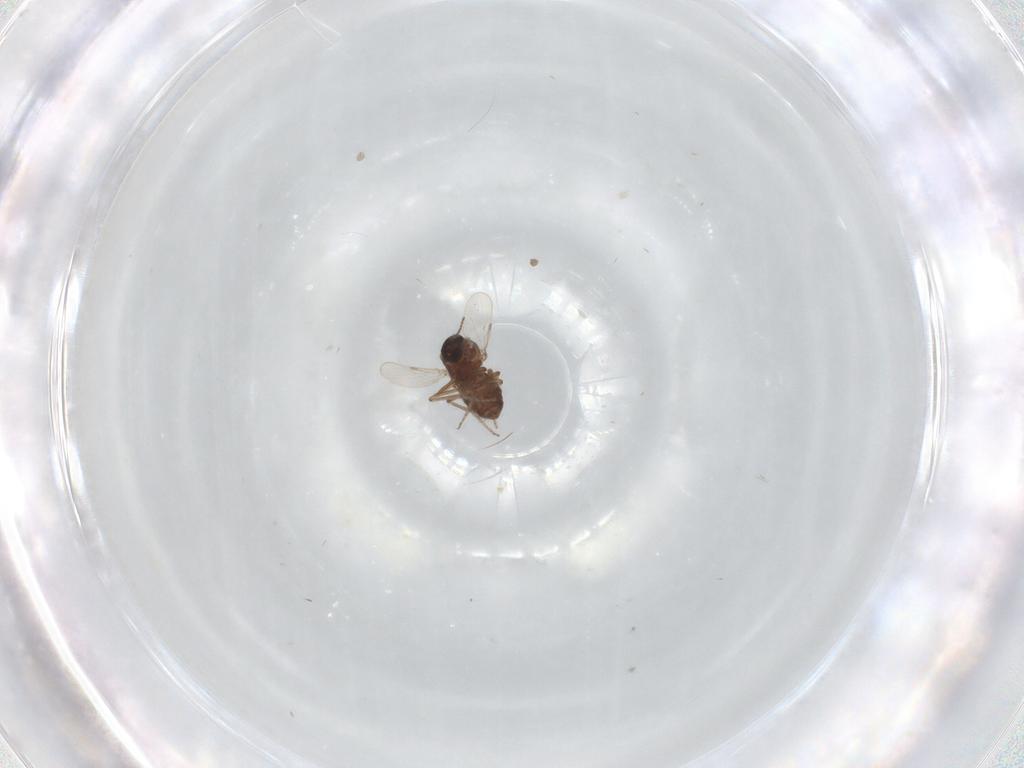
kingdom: Animalia
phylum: Arthropoda
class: Insecta
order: Diptera
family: Ceratopogonidae
